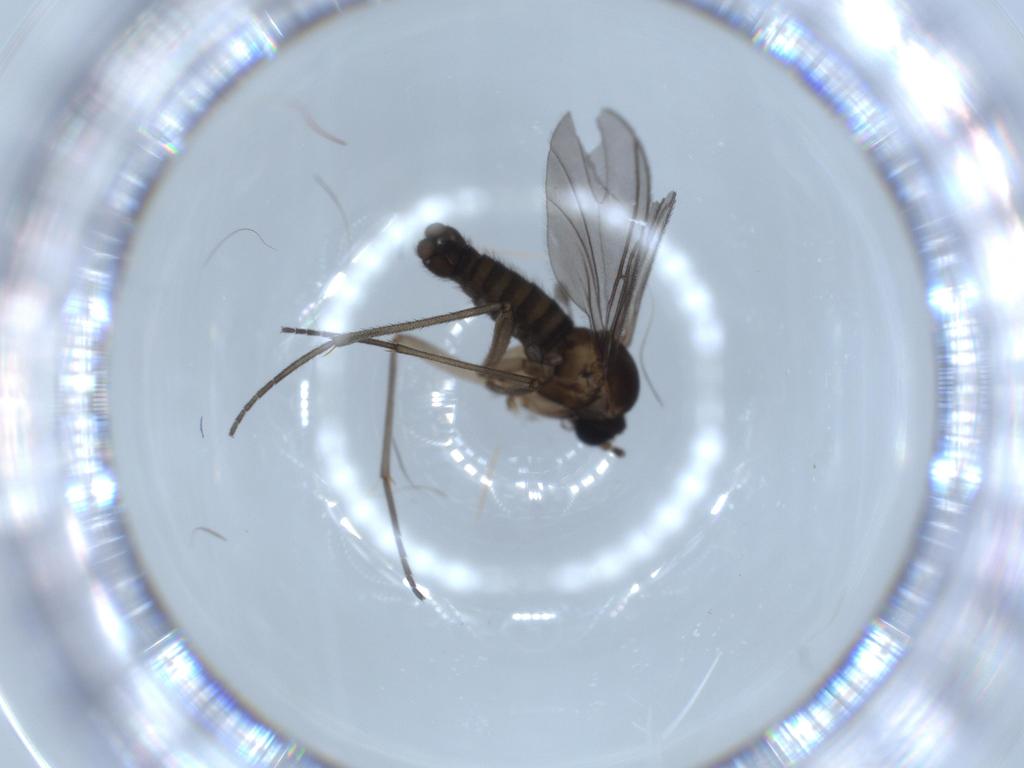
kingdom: Animalia
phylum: Arthropoda
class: Insecta
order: Diptera
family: Sciaridae
